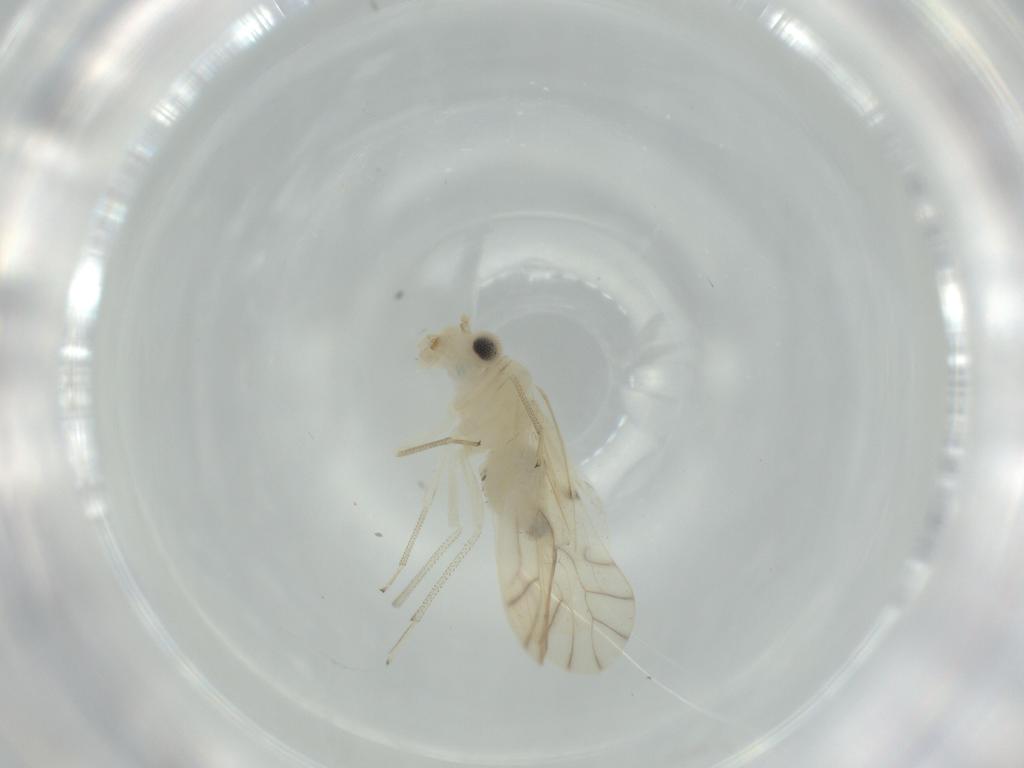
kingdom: Animalia
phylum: Arthropoda
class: Insecta
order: Psocodea
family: Caeciliusidae
